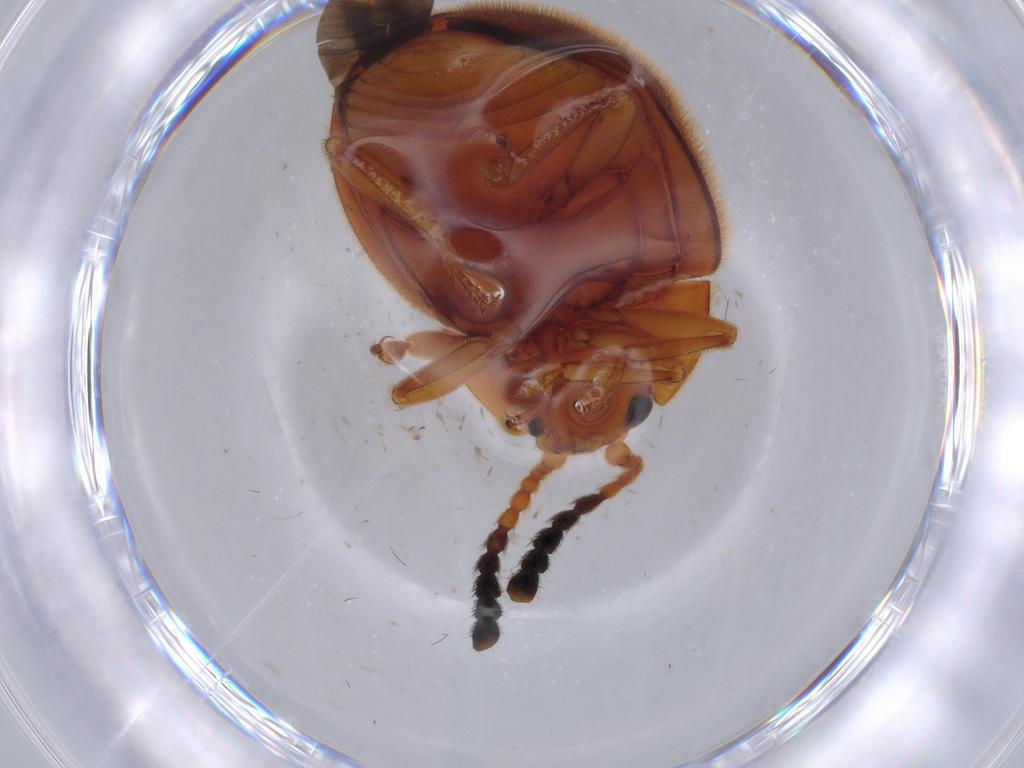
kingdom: Animalia
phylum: Arthropoda
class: Insecta
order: Coleoptera
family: Endomychidae
